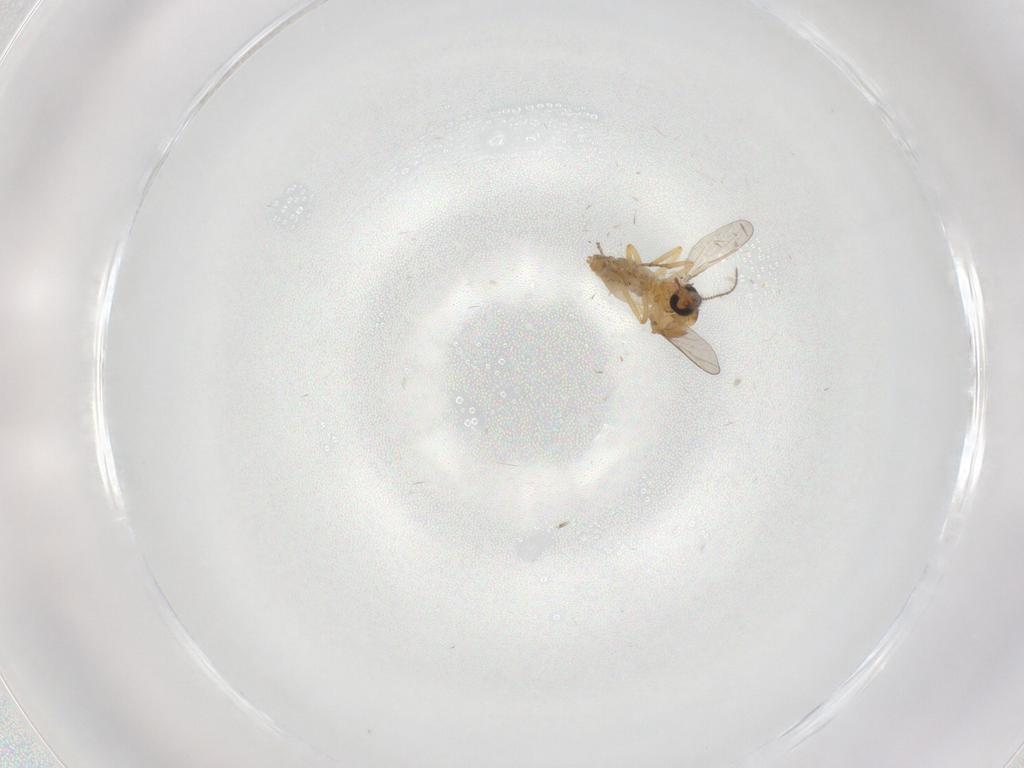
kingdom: Animalia
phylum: Arthropoda
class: Insecta
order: Diptera
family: Ceratopogonidae
